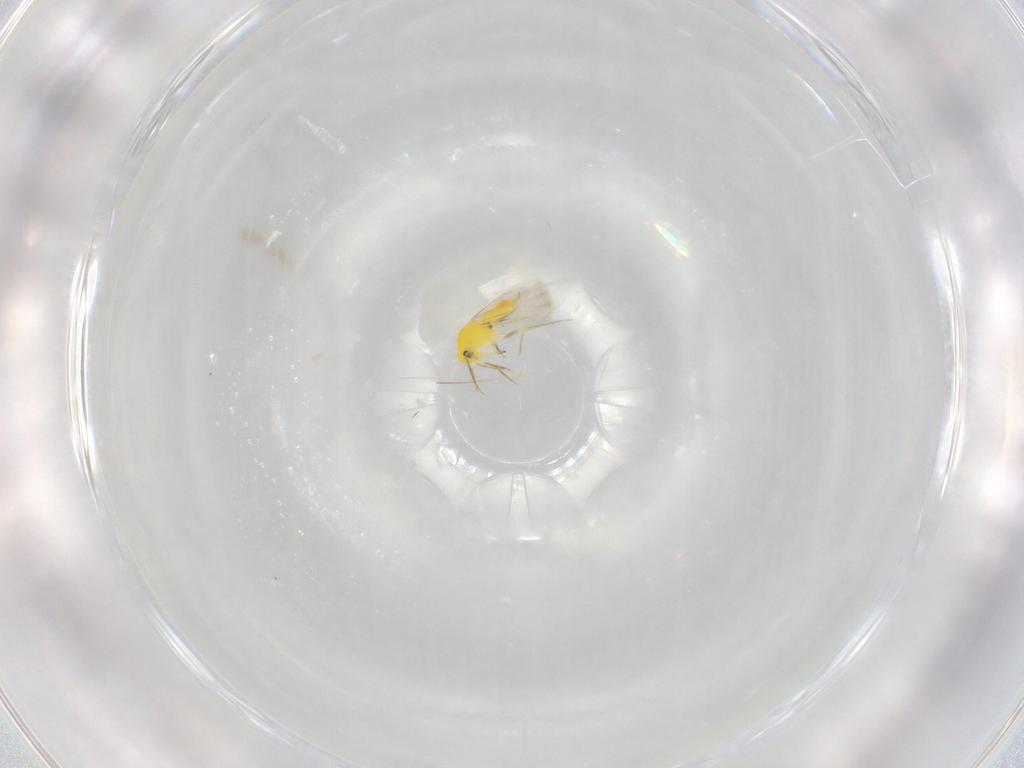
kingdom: Animalia
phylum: Arthropoda
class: Insecta
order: Hemiptera
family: Aleyrodidae
